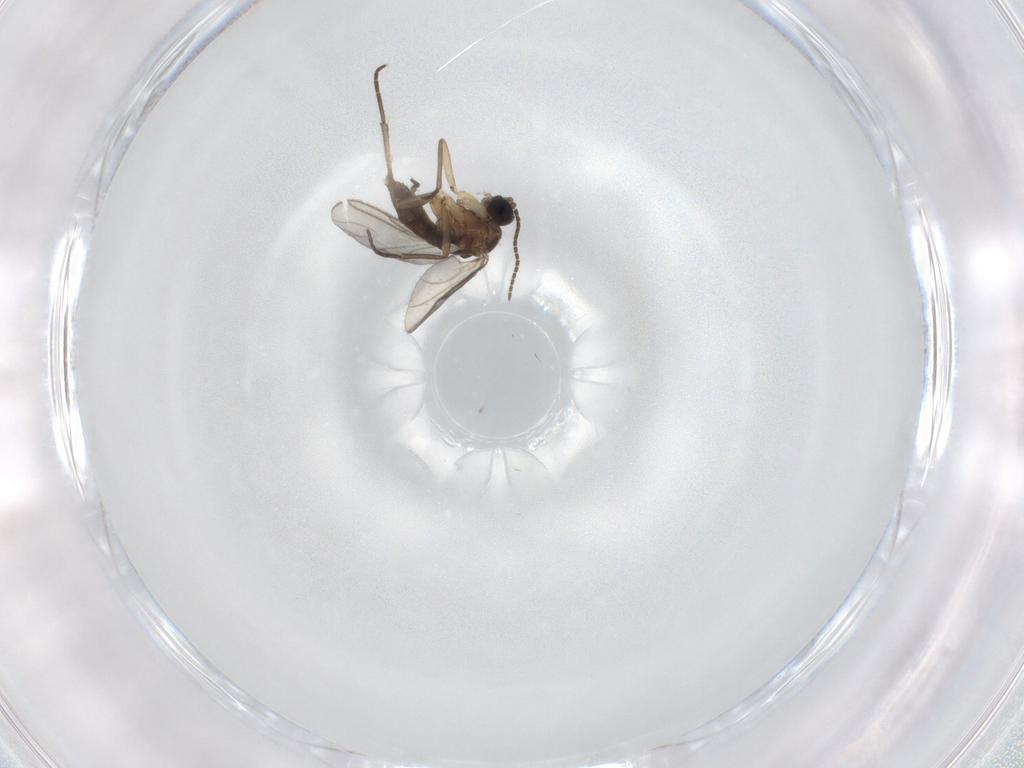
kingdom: Animalia
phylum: Arthropoda
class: Insecta
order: Diptera
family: Sciaridae
